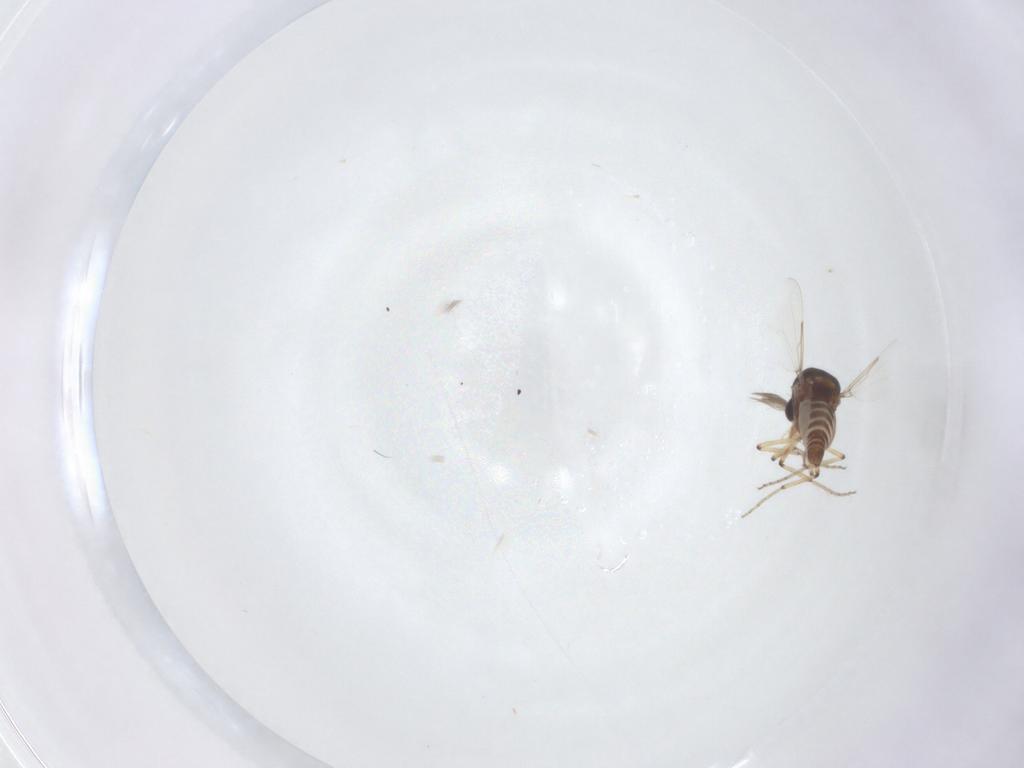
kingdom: Animalia
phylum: Arthropoda
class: Insecta
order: Diptera
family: Ceratopogonidae
